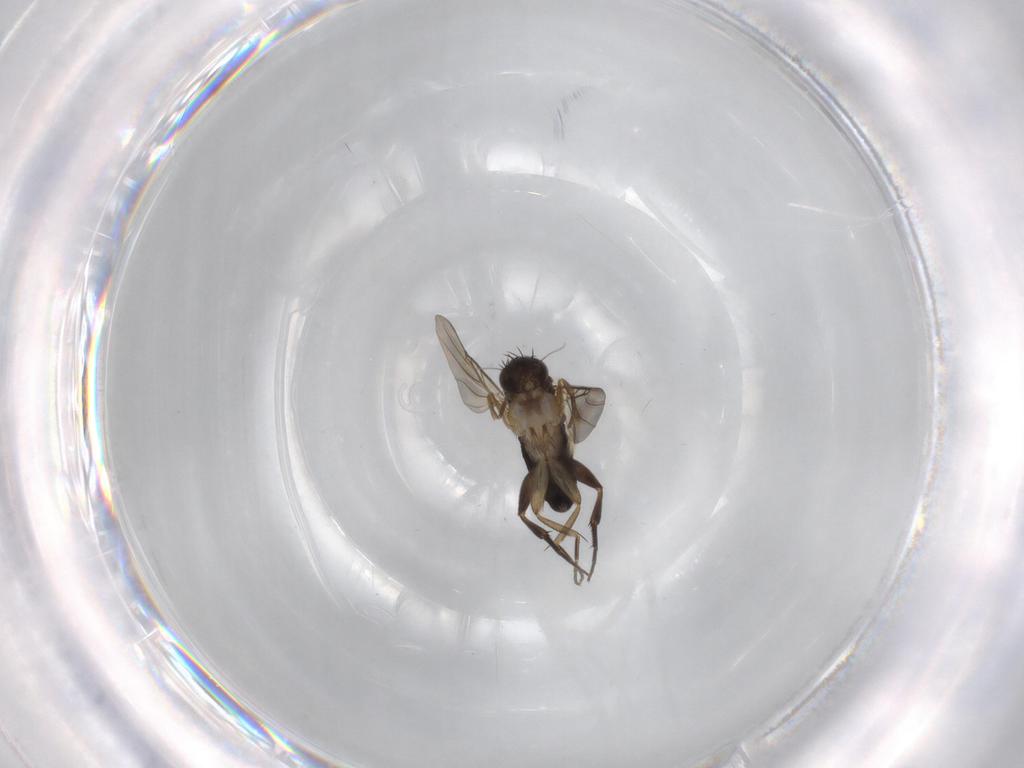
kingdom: Animalia
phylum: Arthropoda
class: Insecta
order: Diptera
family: Phoridae
